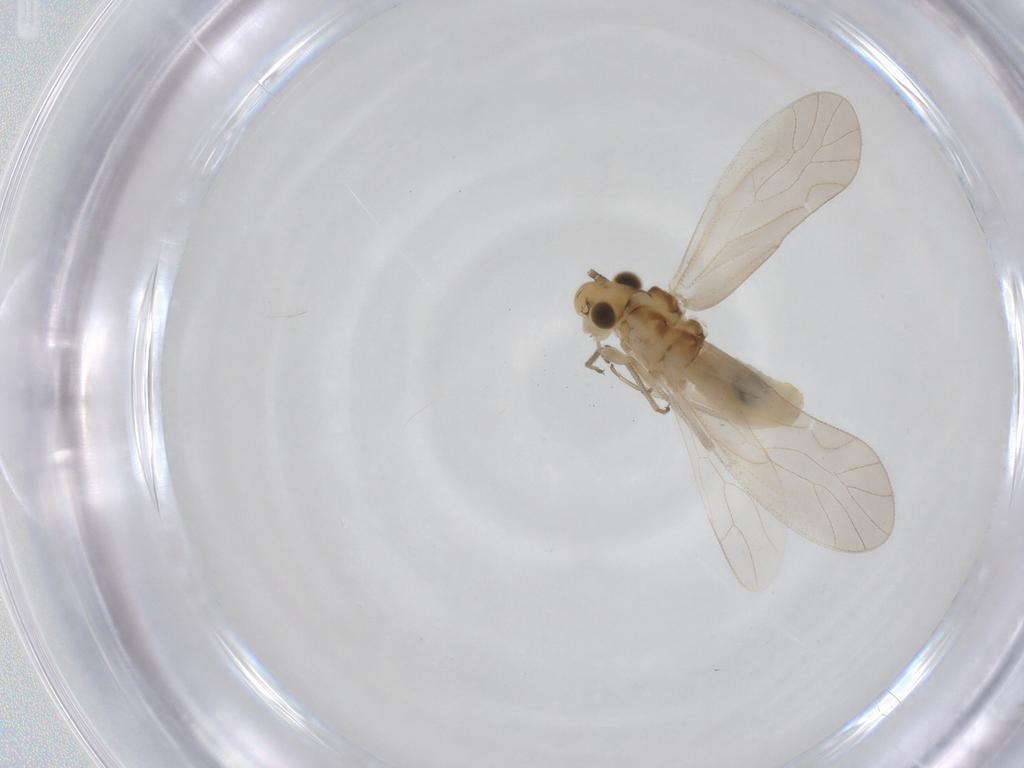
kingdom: Animalia
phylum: Arthropoda
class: Insecta
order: Psocodea
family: Caeciliusidae
